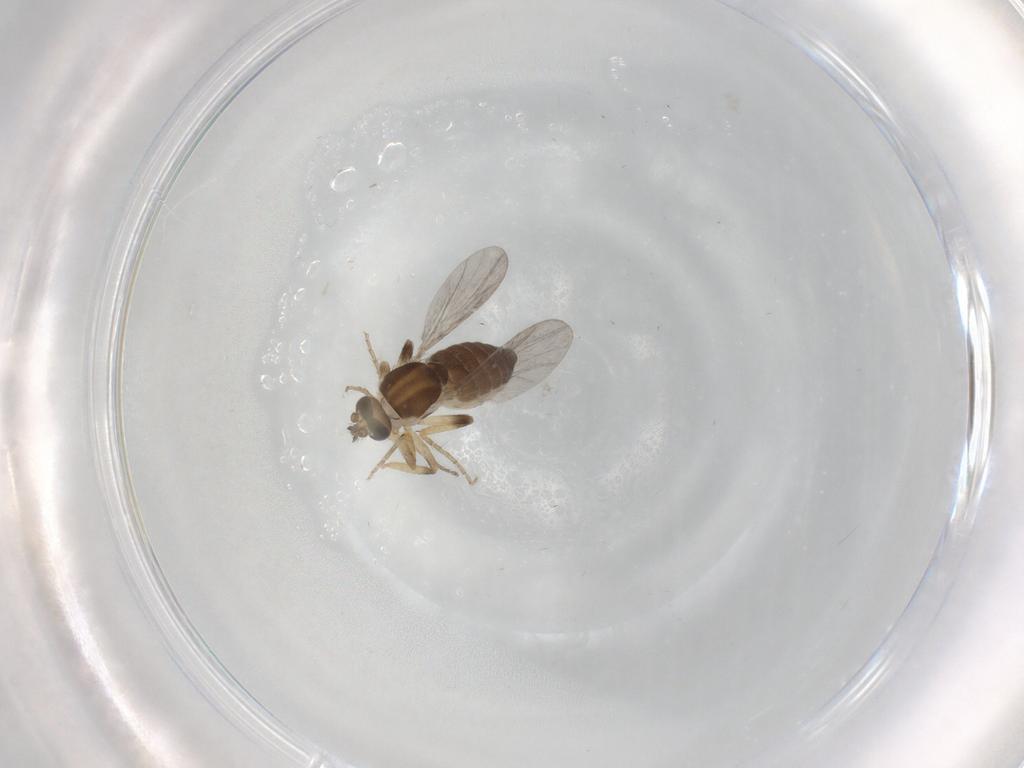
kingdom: Animalia
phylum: Arthropoda
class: Insecta
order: Diptera
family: Ceratopogonidae
